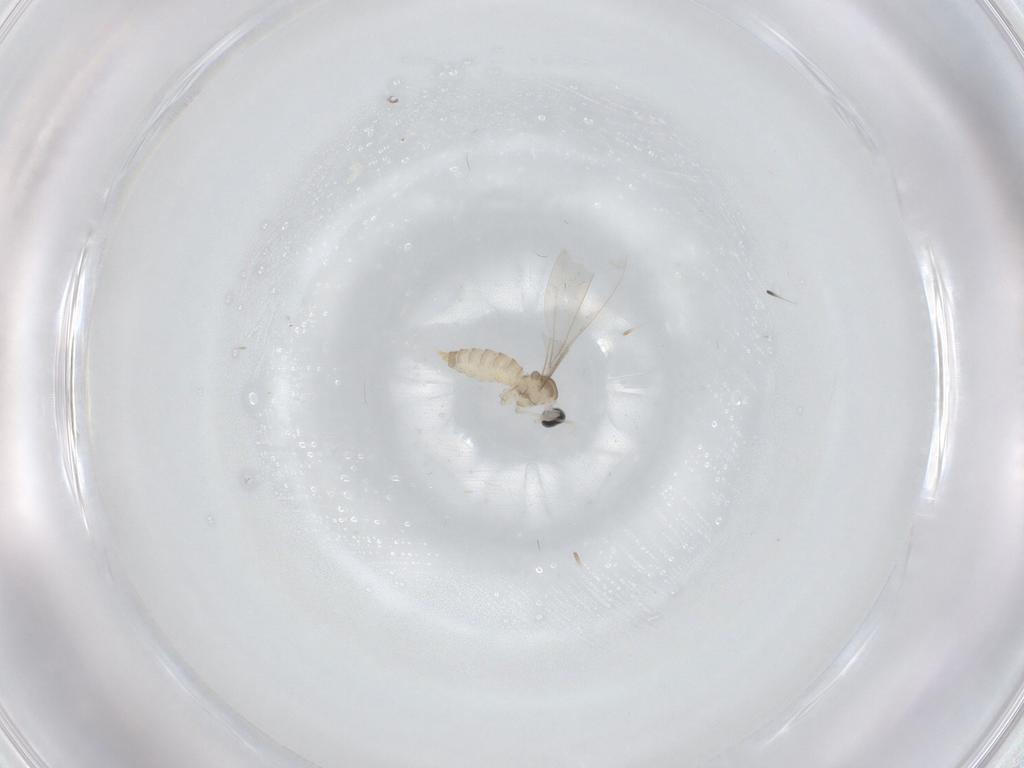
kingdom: Animalia
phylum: Arthropoda
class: Insecta
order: Diptera
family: Cecidomyiidae
